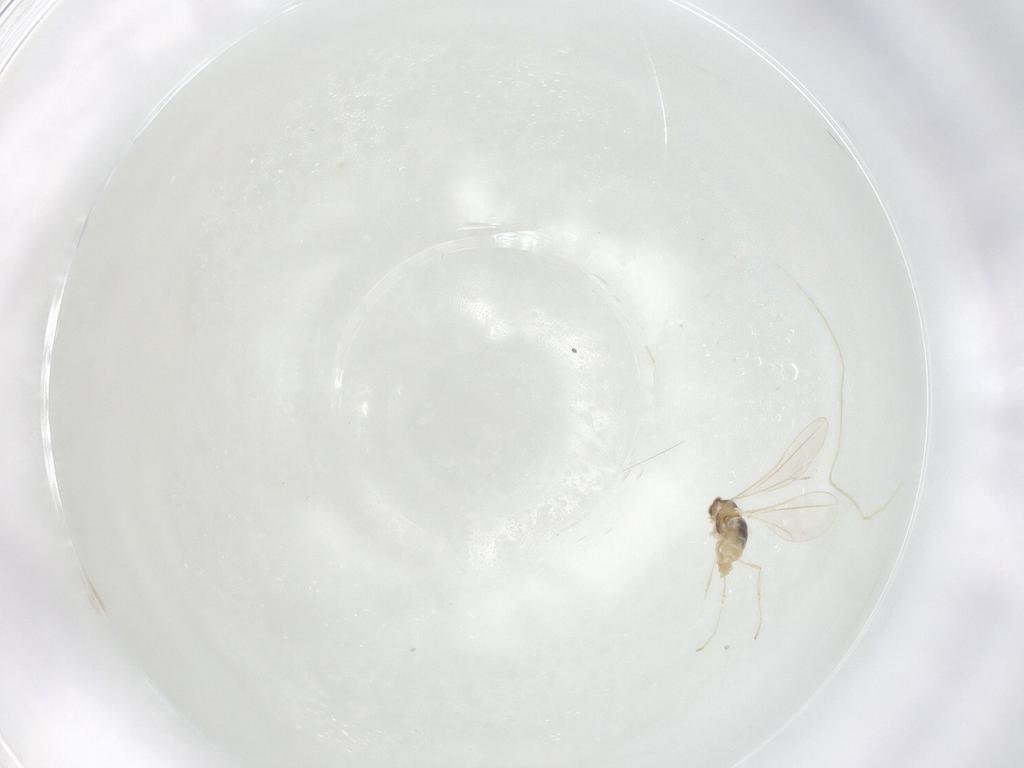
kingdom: Animalia
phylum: Arthropoda
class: Insecta
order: Diptera
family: Cecidomyiidae
